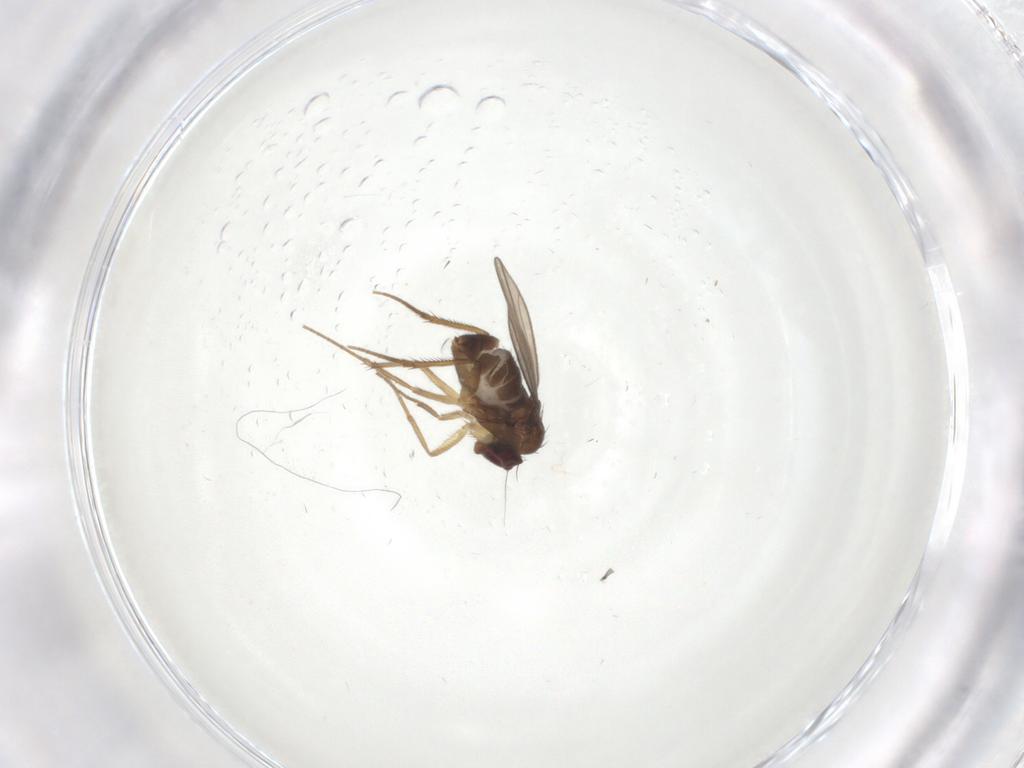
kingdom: Animalia
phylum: Arthropoda
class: Insecta
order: Diptera
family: Dolichopodidae
